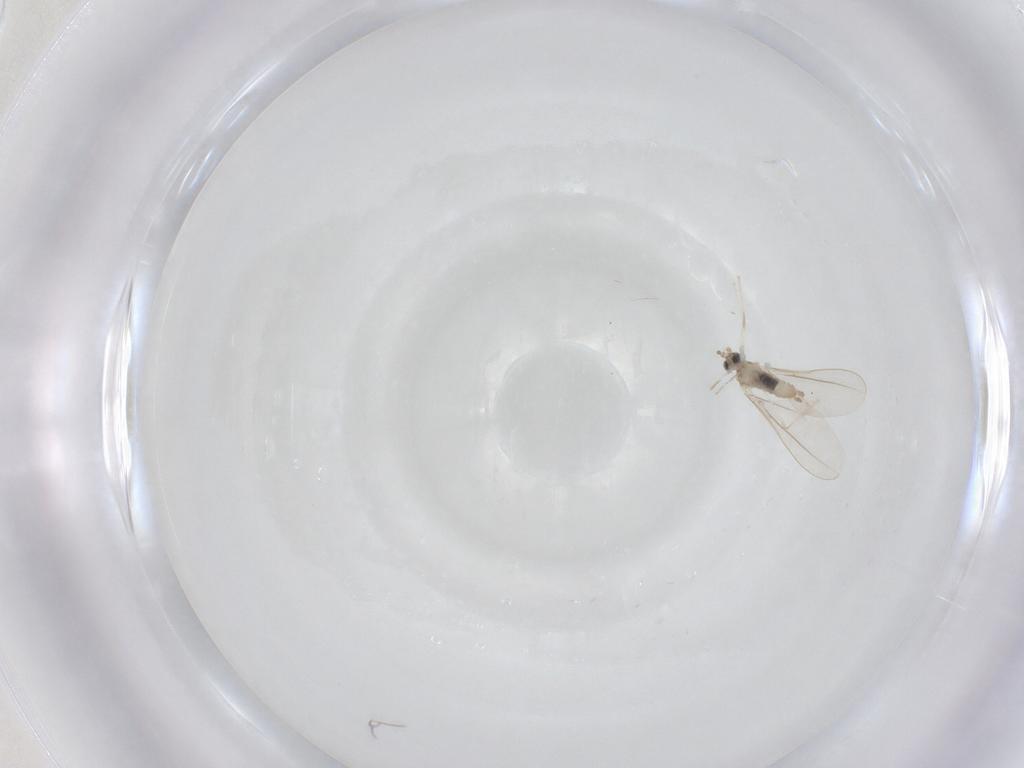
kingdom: Animalia
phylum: Arthropoda
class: Insecta
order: Diptera
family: Cecidomyiidae
